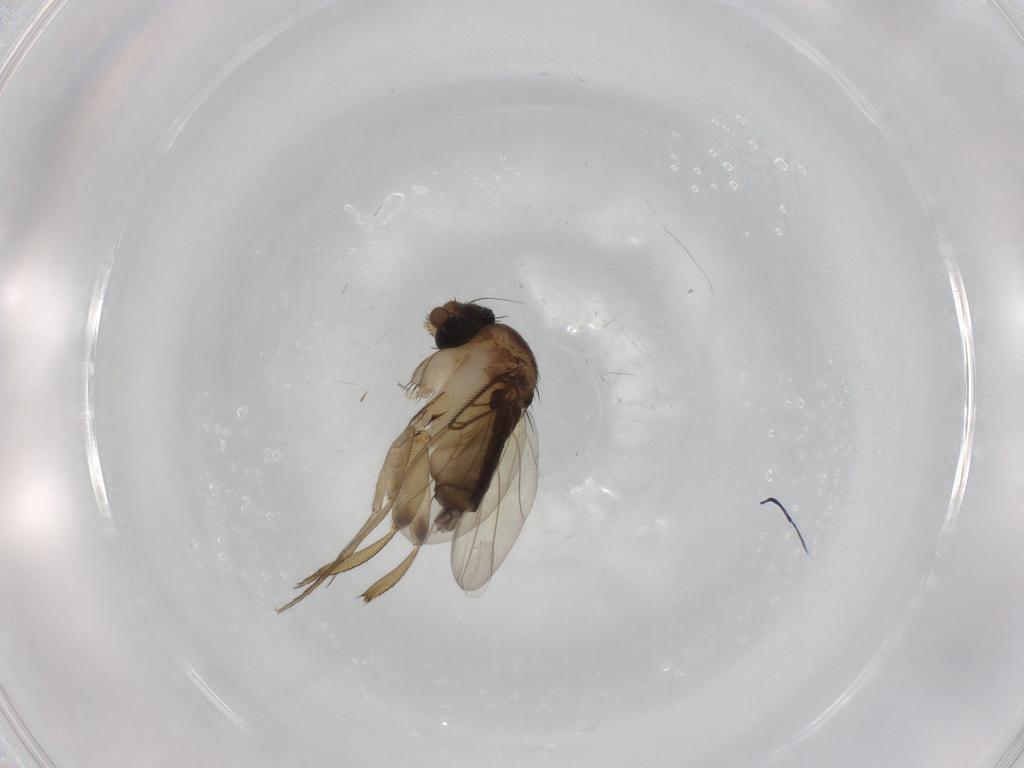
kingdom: Animalia
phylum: Arthropoda
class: Insecta
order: Diptera
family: Phoridae
